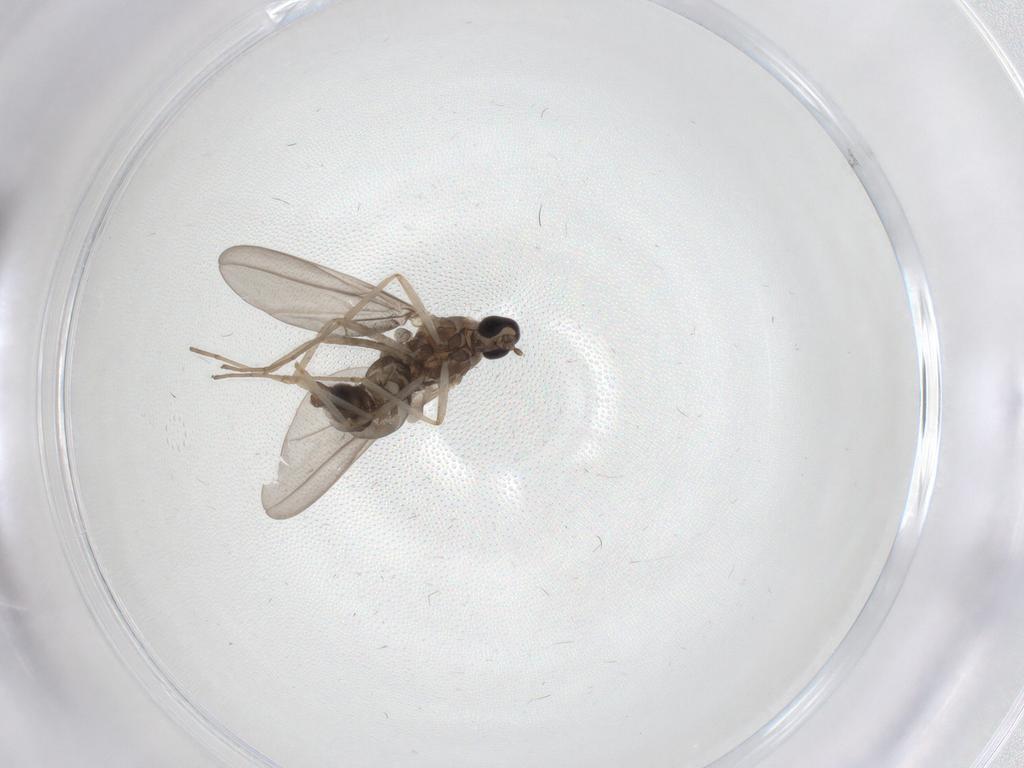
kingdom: Animalia
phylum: Arthropoda
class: Insecta
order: Diptera
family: Cecidomyiidae
